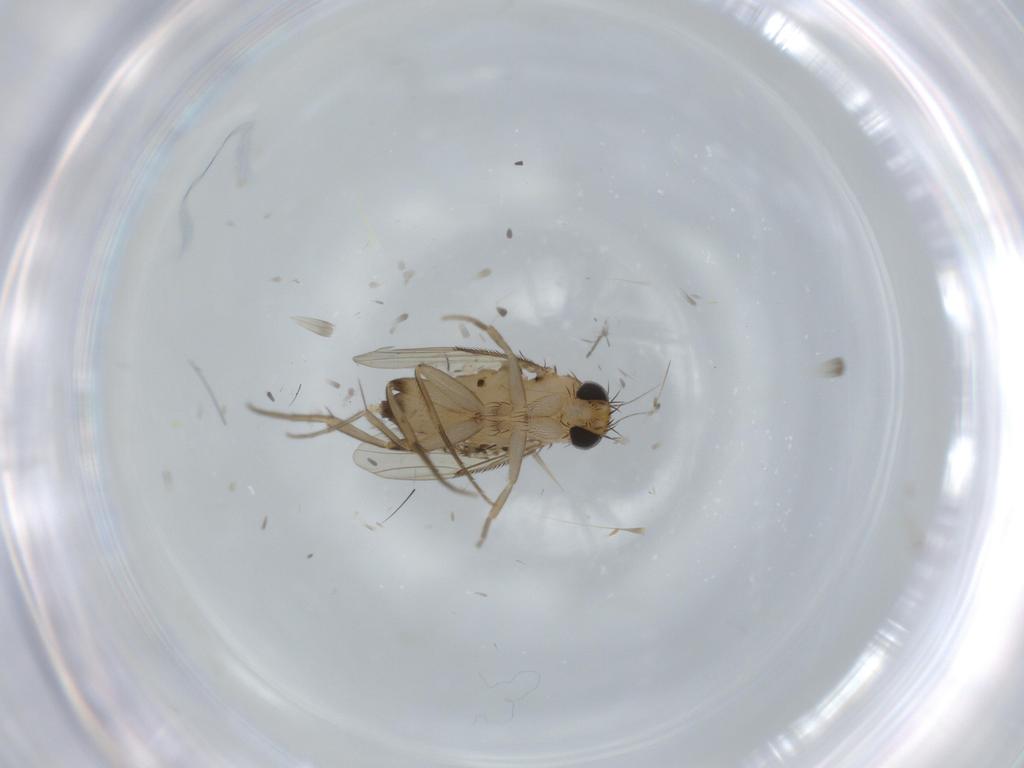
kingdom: Animalia
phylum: Arthropoda
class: Insecta
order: Diptera
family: Phoridae
